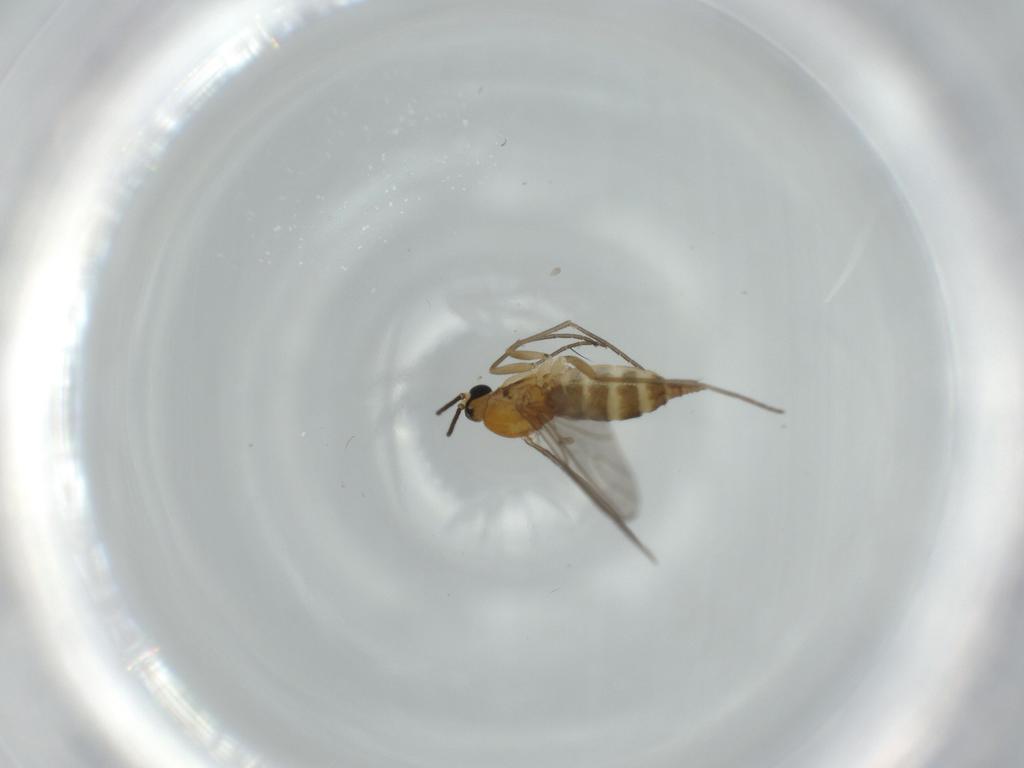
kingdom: Animalia
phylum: Arthropoda
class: Insecta
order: Diptera
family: Sciaridae
